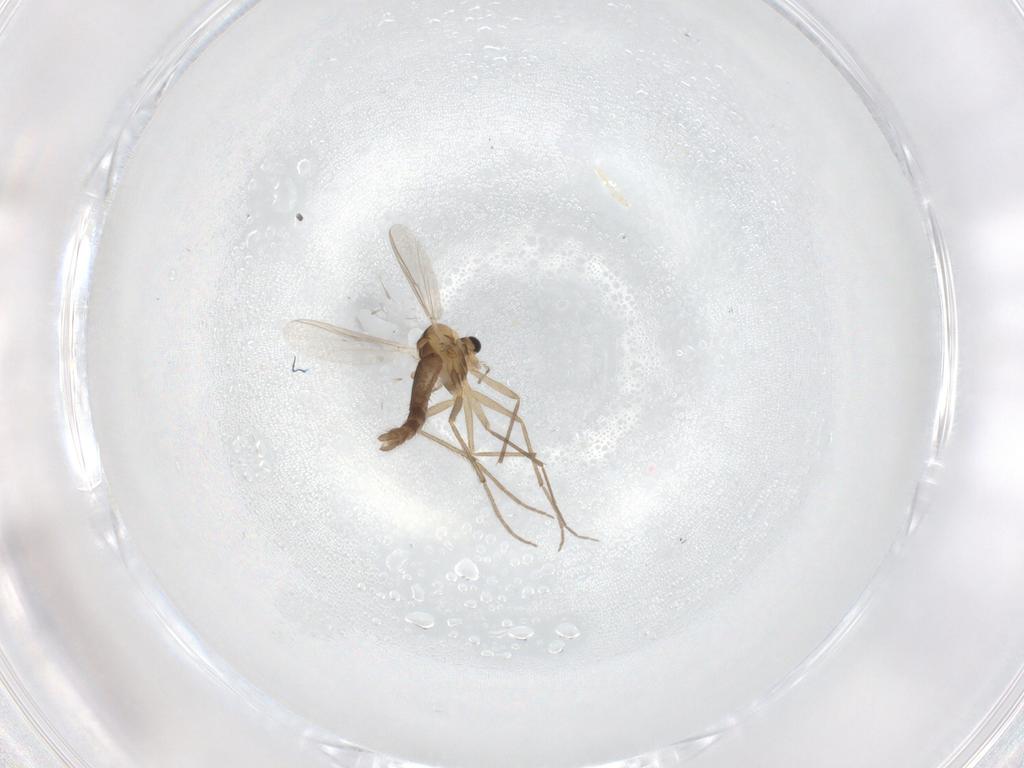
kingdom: Animalia
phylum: Arthropoda
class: Insecta
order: Diptera
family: Chironomidae
